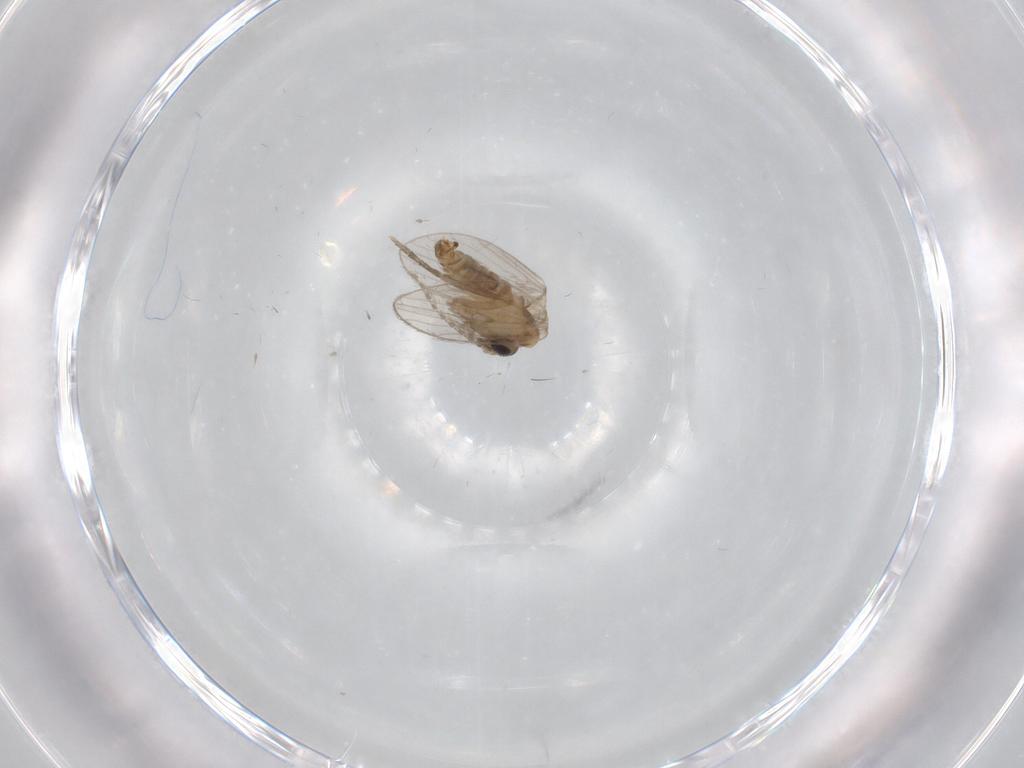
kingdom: Animalia
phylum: Arthropoda
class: Insecta
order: Diptera
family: Psychodidae
